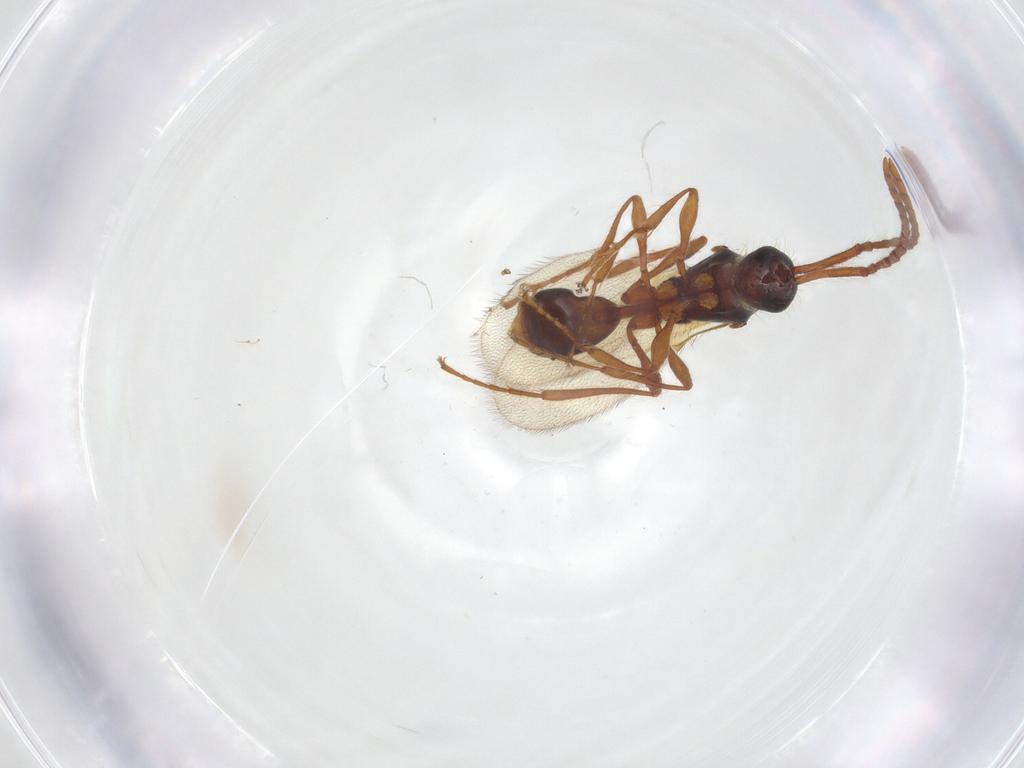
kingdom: Animalia
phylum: Arthropoda
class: Insecta
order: Hymenoptera
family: Diapriidae
